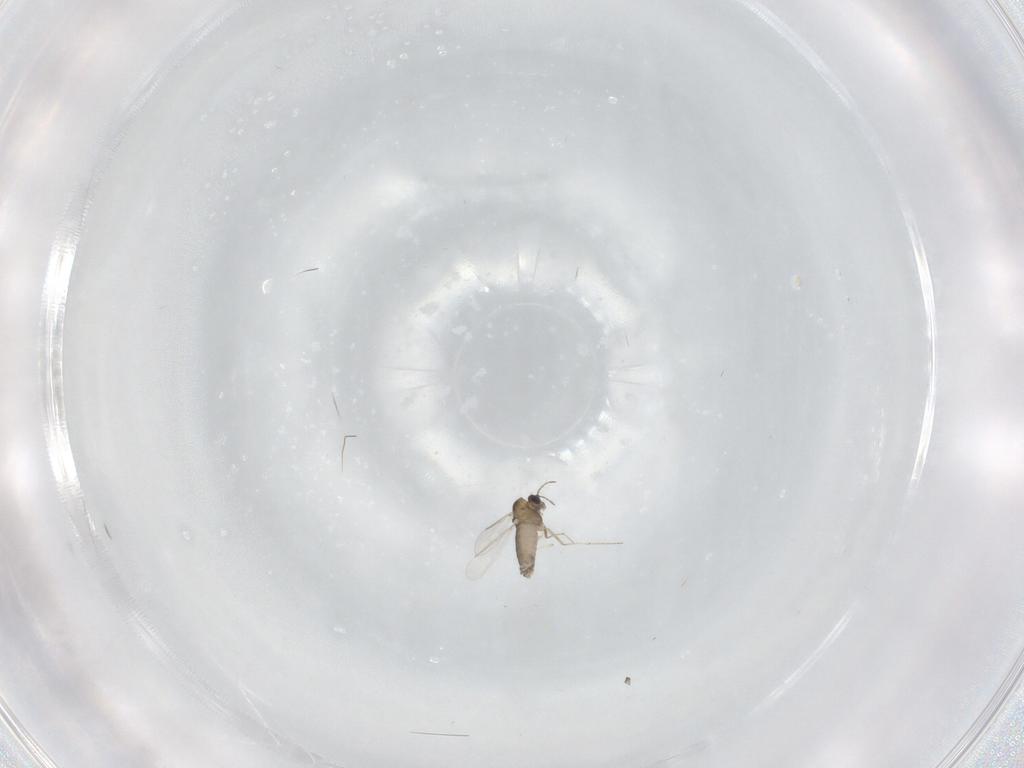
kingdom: Animalia
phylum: Arthropoda
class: Insecta
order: Diptera
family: Chironomidae
